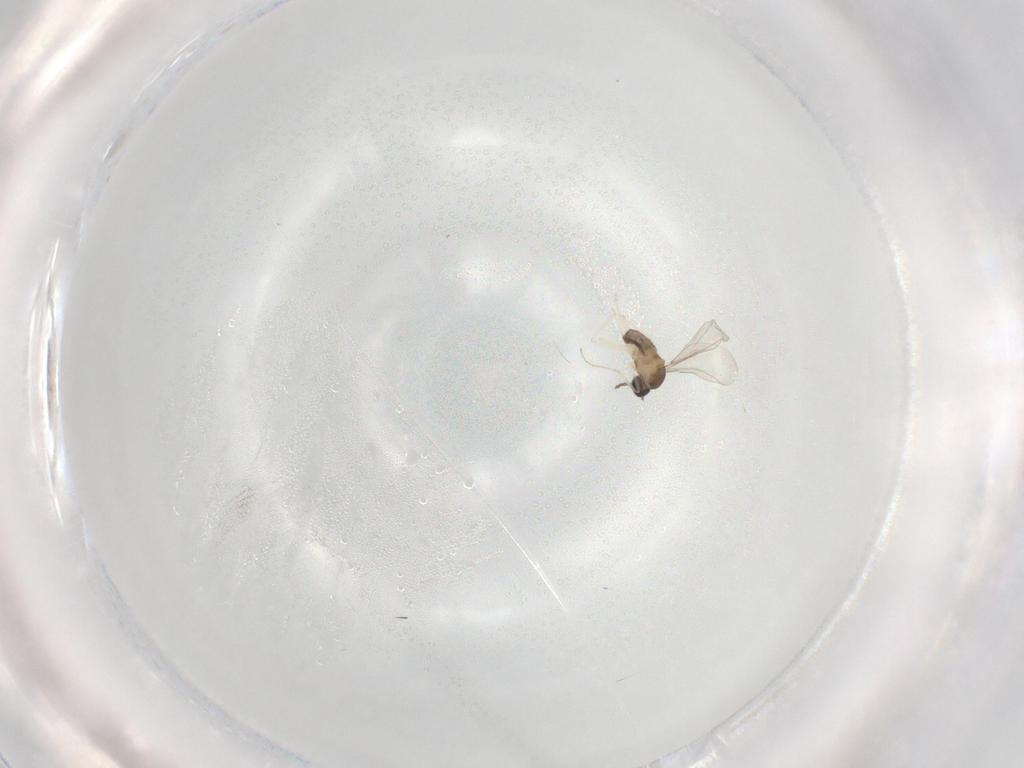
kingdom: Animalia
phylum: Arthropoda
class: Insecta
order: Diptera
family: Cecidomyiidae
